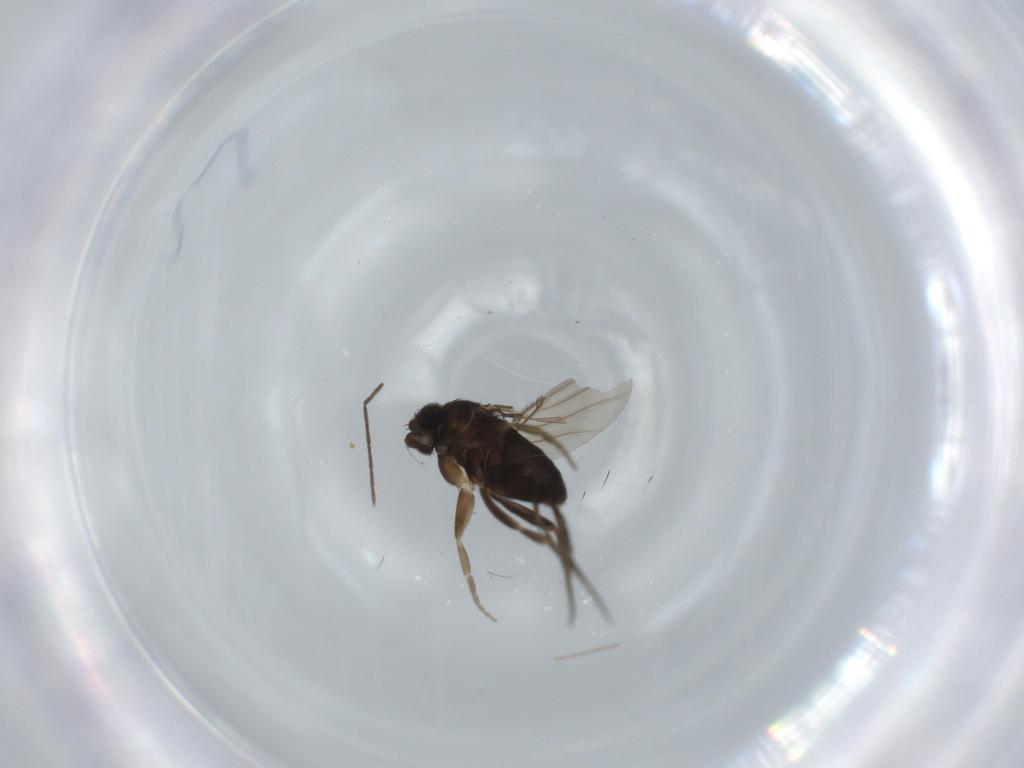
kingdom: Animalia
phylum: Arthropoda
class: Insecta
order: Diptera
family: Keroplatidae
